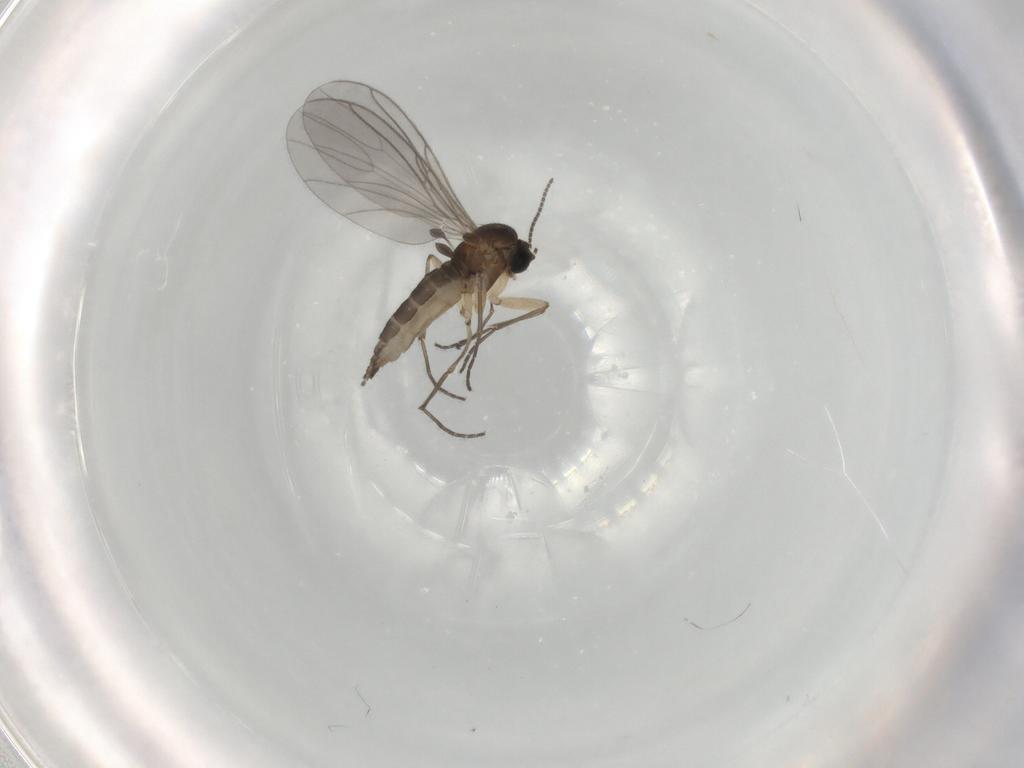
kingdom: Animalia
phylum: Arthropoda
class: Insecta
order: Diptera
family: Sciaridae
